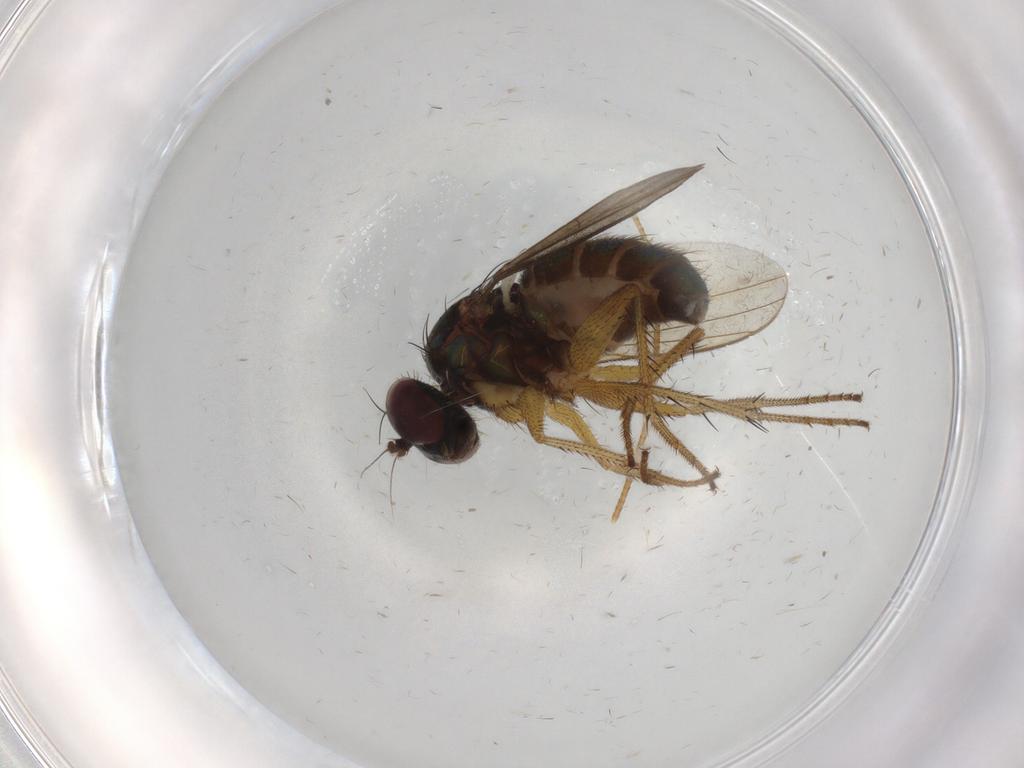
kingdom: Animalia
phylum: Arthropoda
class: Insecta
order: Diptera
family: Dolichopodidae
